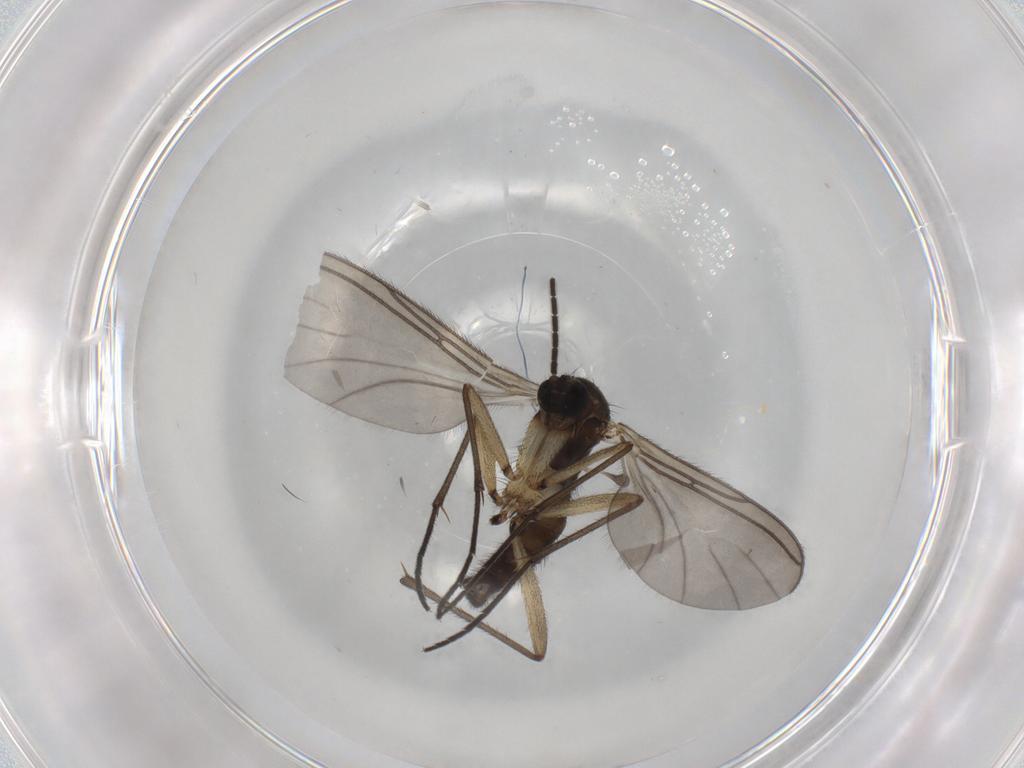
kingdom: Animalia
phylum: Arthropoda
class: Insecta
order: Diptera
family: Sciaridae
